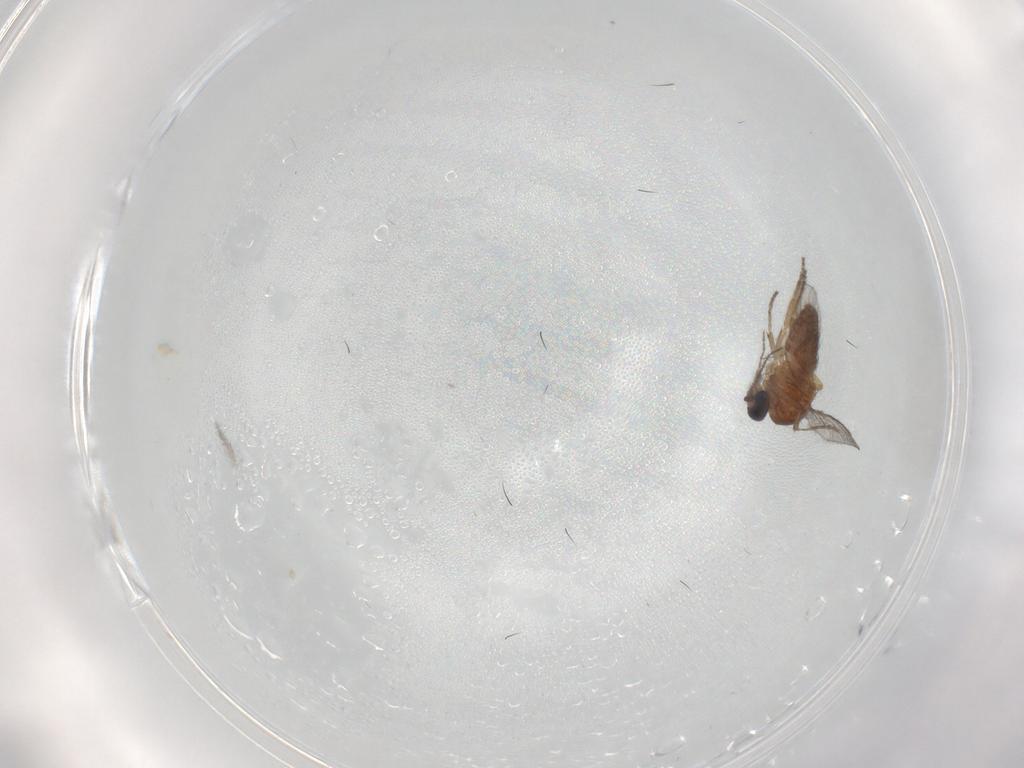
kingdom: Animalia
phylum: Arthropoda
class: Insecta
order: Diptera
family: Ceratopogonidae
